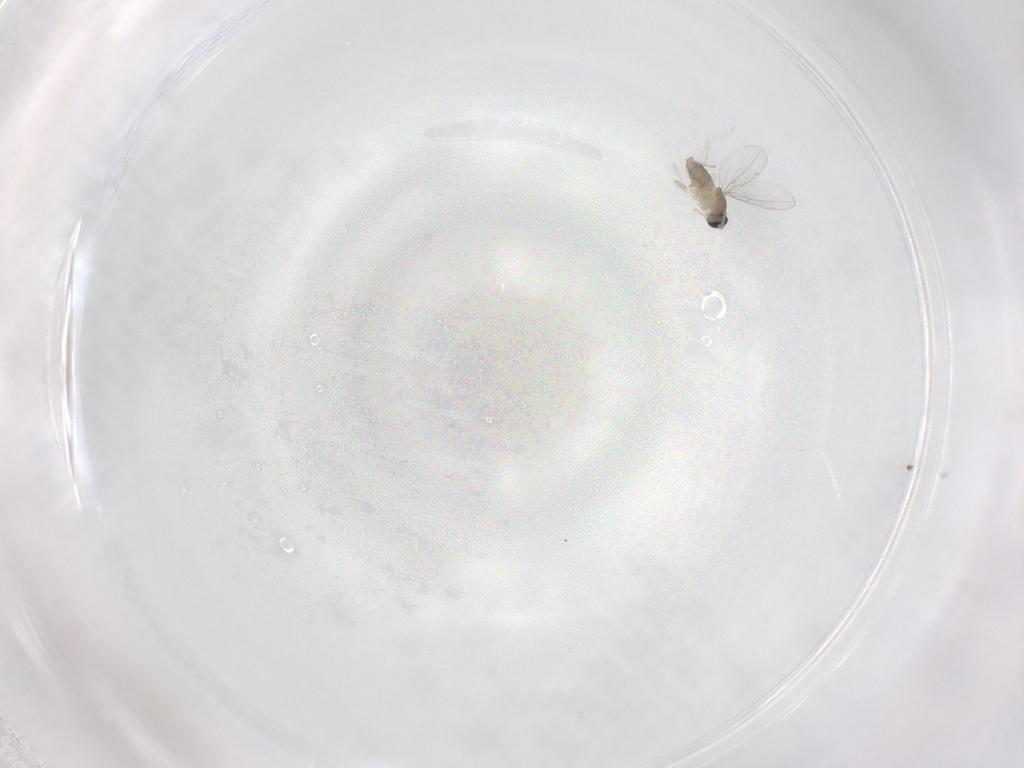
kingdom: Animalia
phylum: Arthropoda
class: Insecta
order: Diptera
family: Cecidomyiidae
